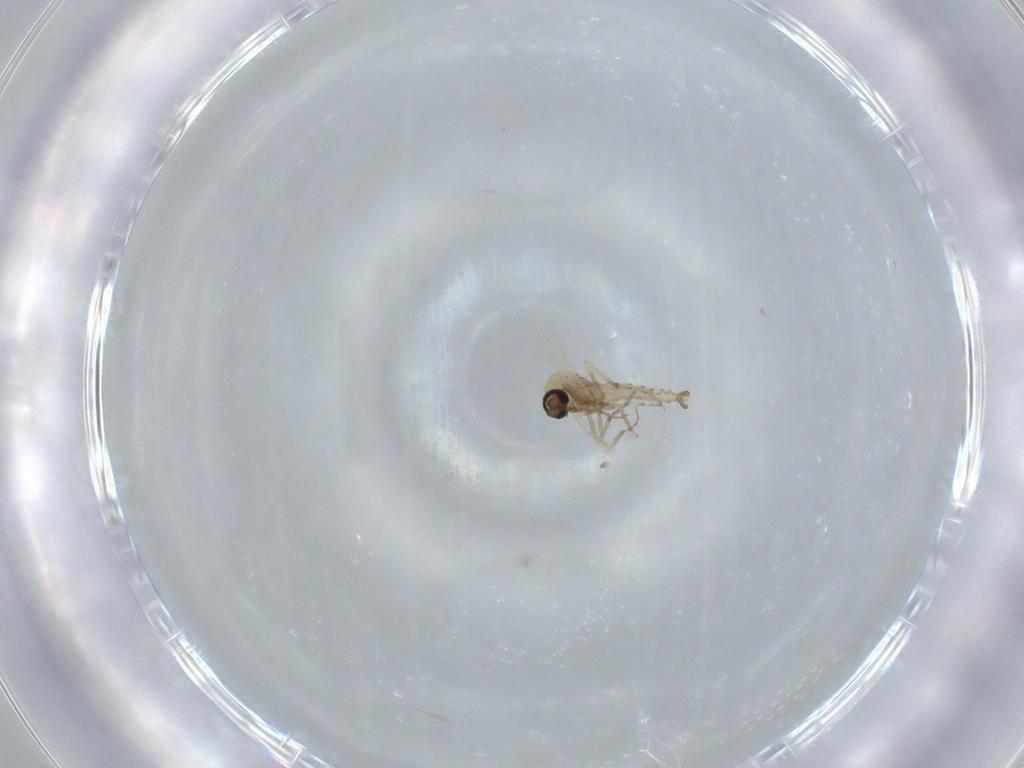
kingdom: Animalia
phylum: Arthropoda
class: Insecta
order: Diptera
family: Ceratopogonidae
